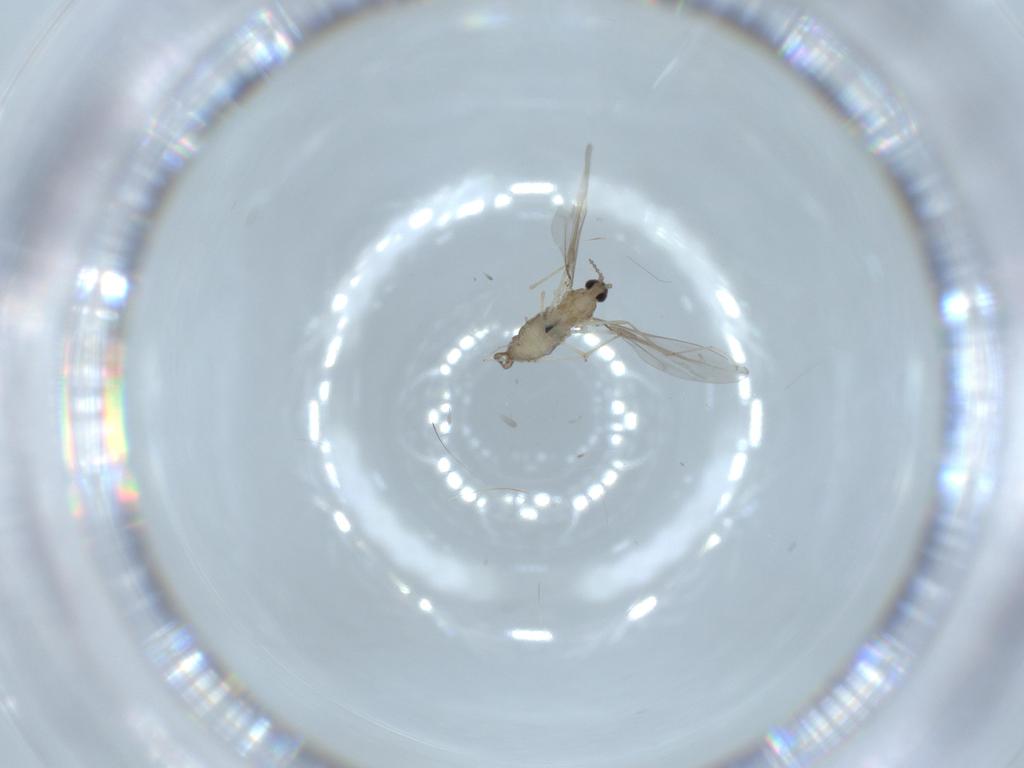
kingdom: Animalia
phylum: Arthropoda
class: Insecta
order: Diptera
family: Cecidomyiidae
